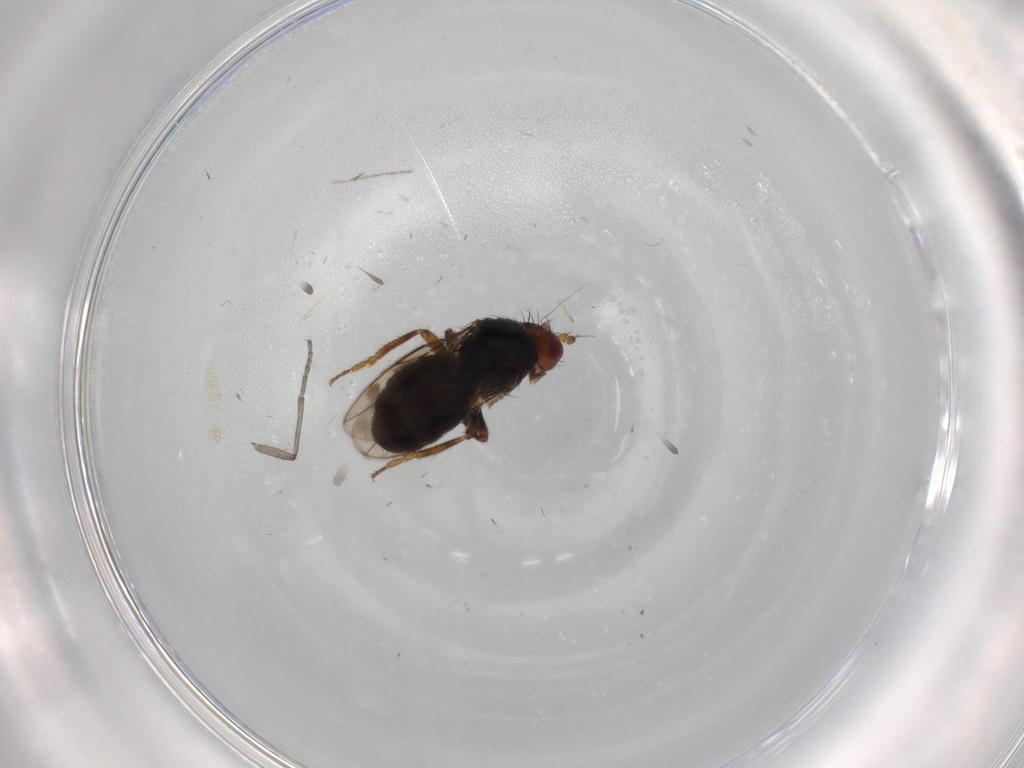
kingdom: Animalia
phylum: Arthropoda
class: Insecta
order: Diptera
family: Sphaeroceridae
